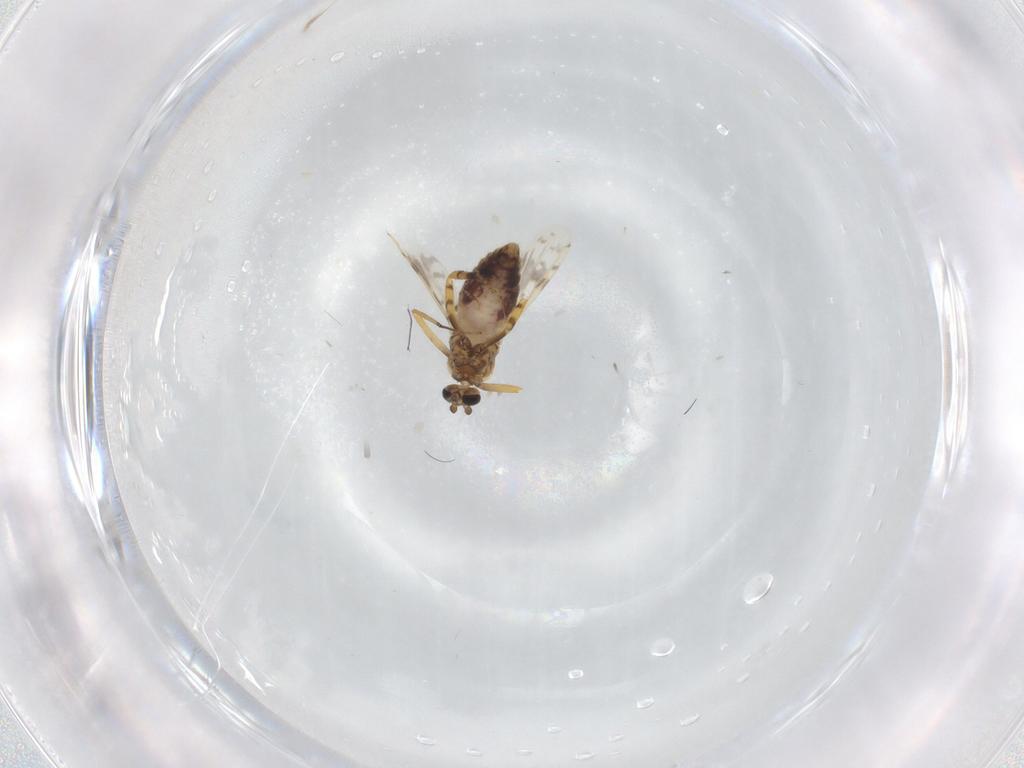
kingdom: Animalia
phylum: Arthropoda
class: Insecta
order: Diptera
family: Ceratopogonidae
